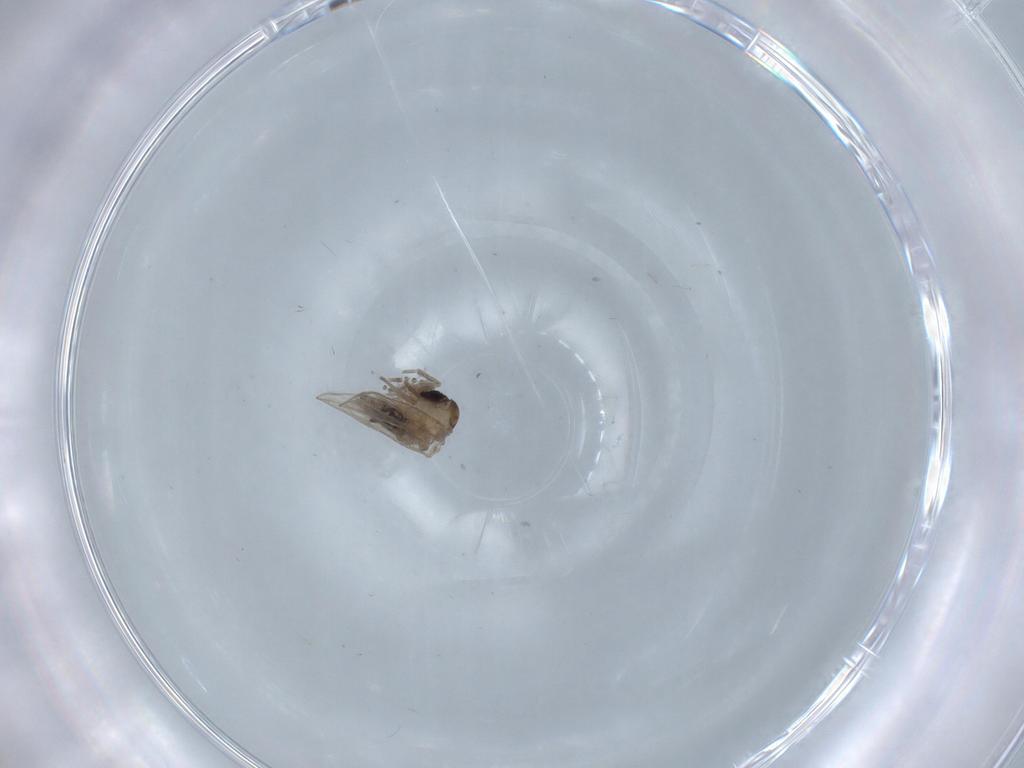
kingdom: Animalia
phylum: Arthropoda
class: Insecta
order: Diptera
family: Psychodidae
